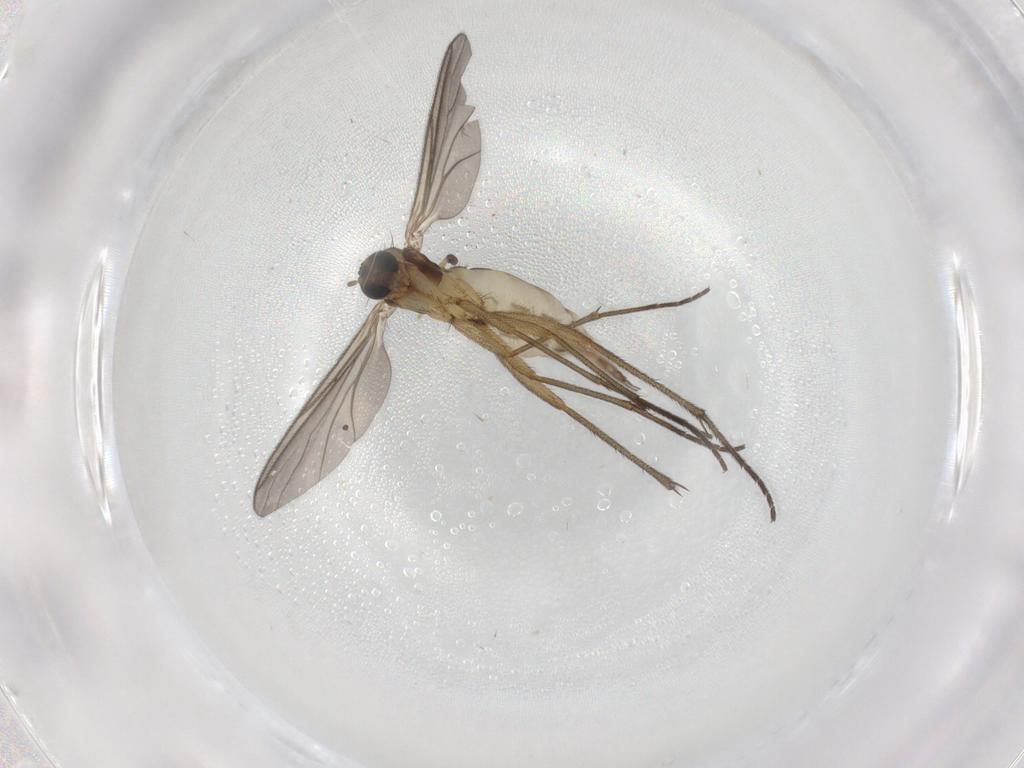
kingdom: Animalia
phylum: Arthropoda
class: Insecta
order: Diptera
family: Sciaridae
